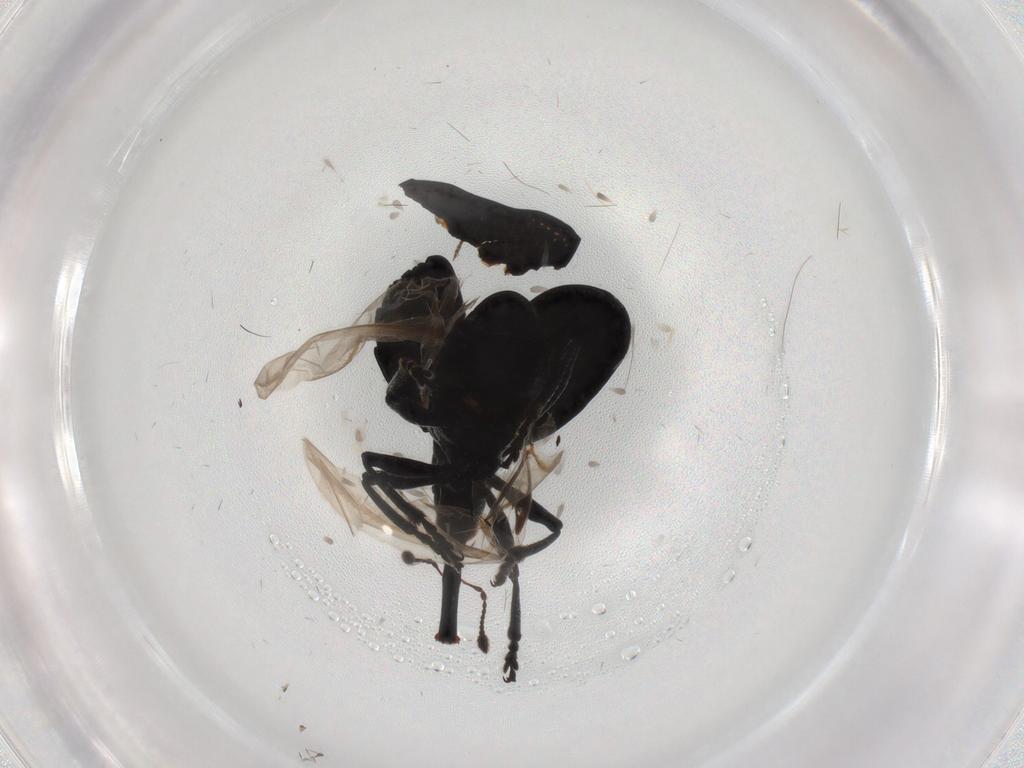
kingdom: Animalia
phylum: Arthropoda
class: Insecta
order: Coleoptera
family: Brentidae
